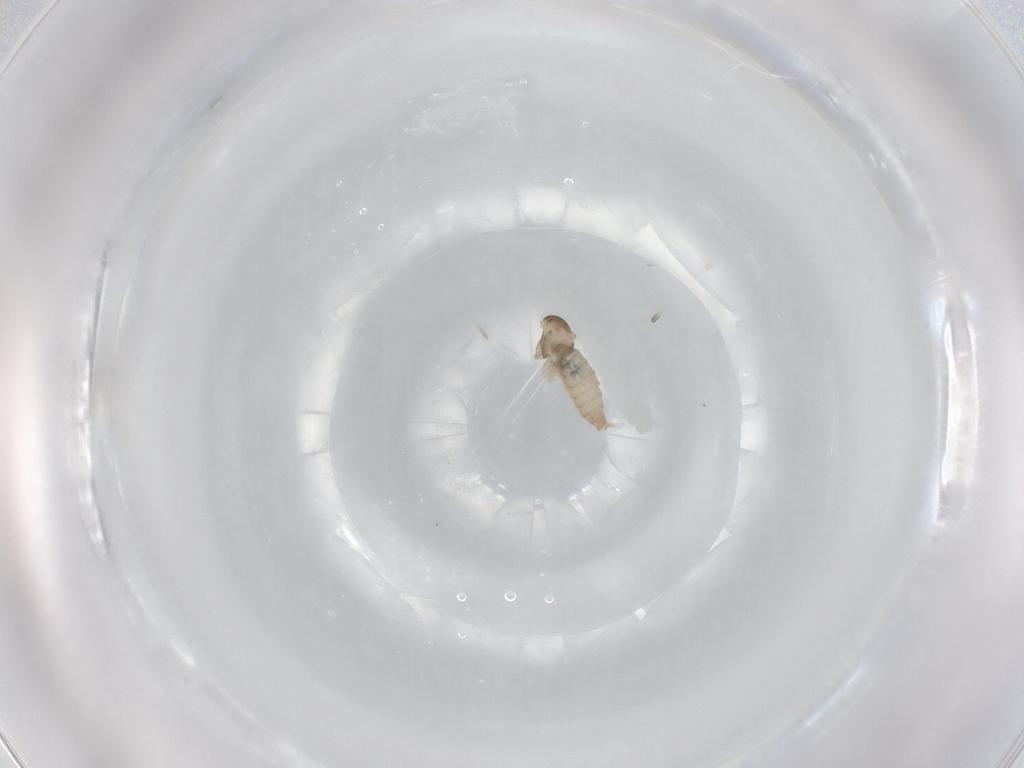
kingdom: Animalia
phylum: Arthropoda
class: Insecta
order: Diptera
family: Cecidomyiidae
